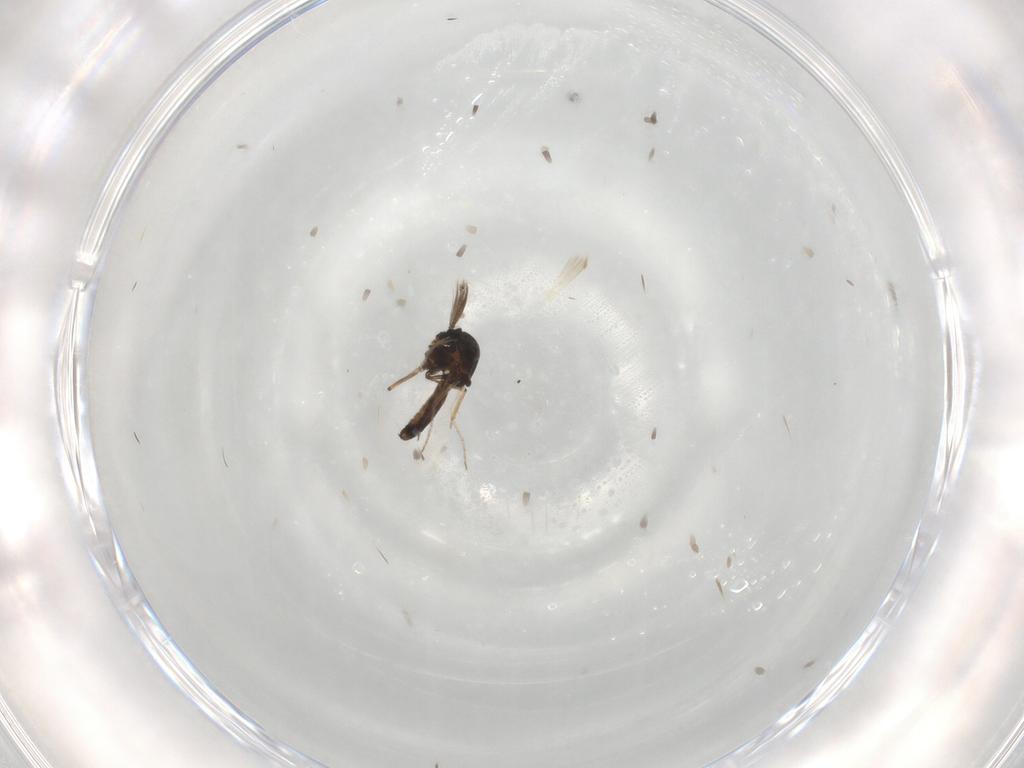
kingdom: Animalia
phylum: Arthropoda
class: Insecta
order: Diptera
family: Ceratopogonidae
